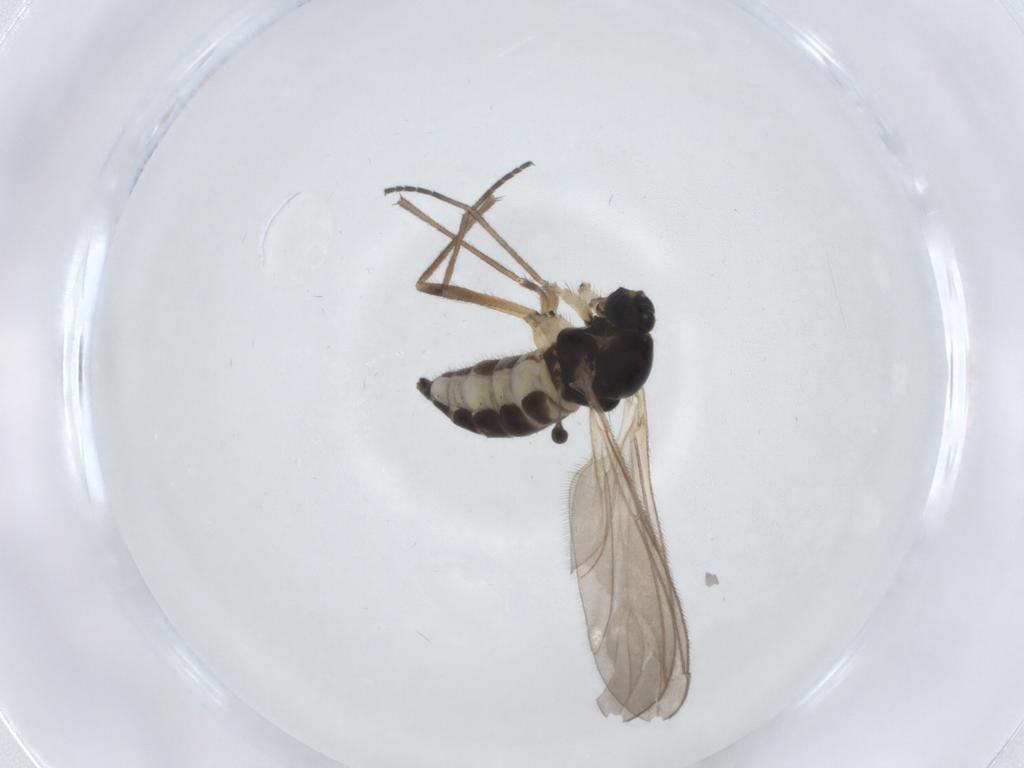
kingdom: Animalia
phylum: Arthropoda
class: Insecta
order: Diptera
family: Sciaridae
